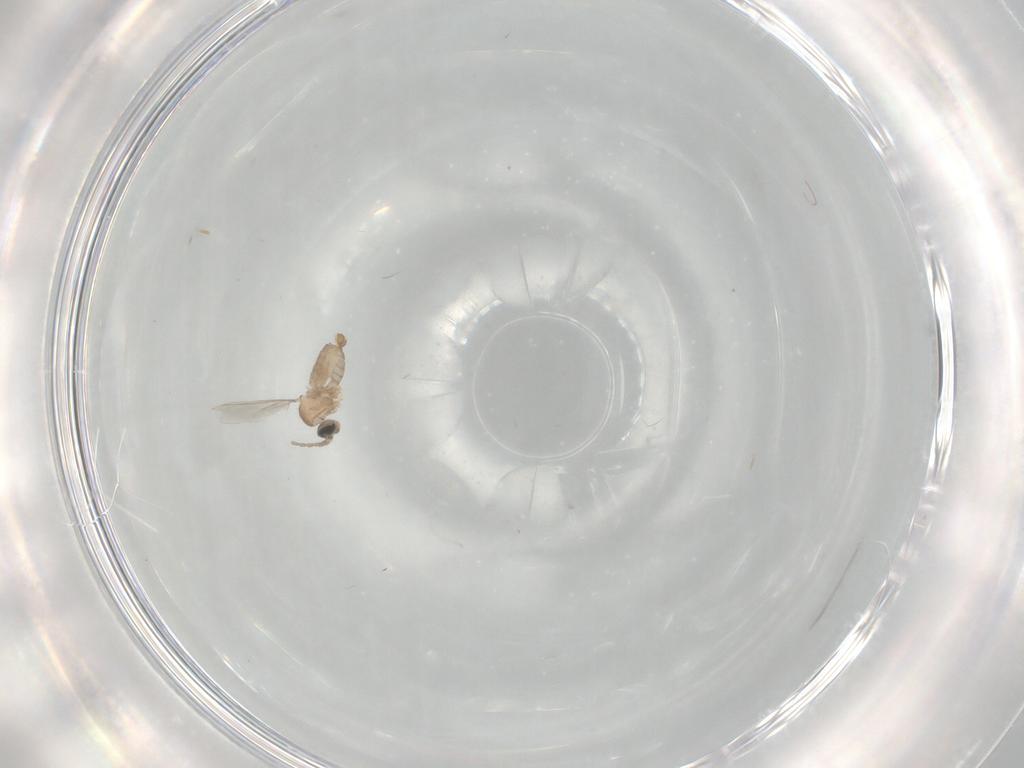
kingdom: Animalia
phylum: Arthropoda
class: Insecta
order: Diptera
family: Cecidomyiidae
